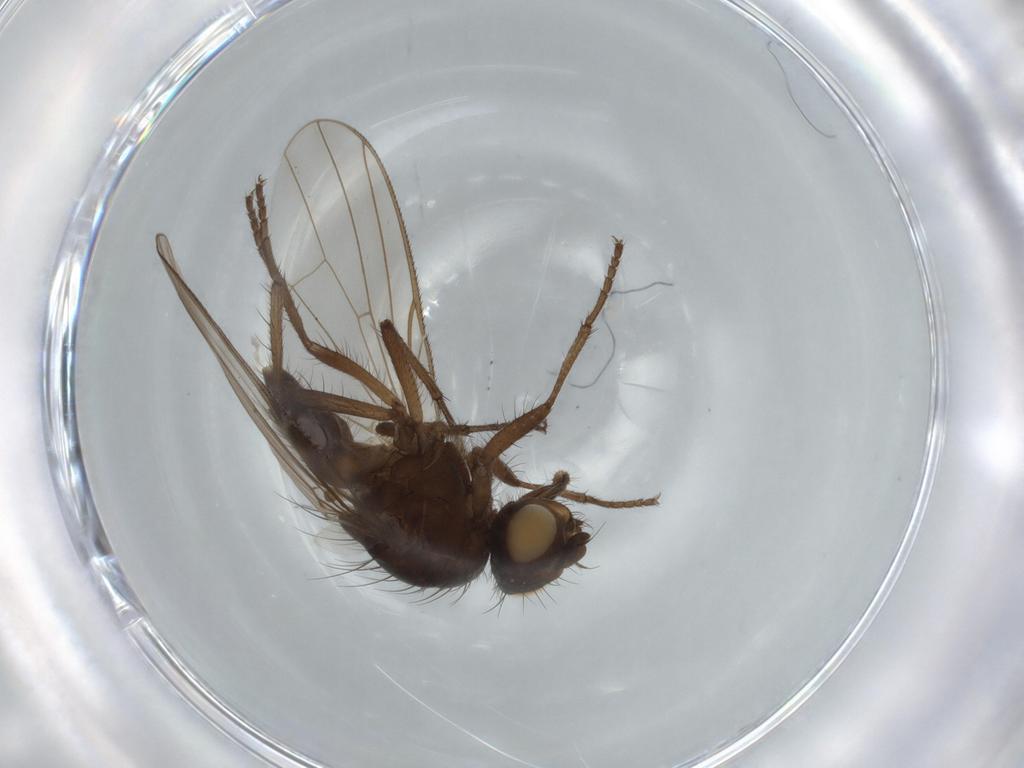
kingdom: Animalia
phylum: Arthropoda
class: Insecta
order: Diptera
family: Anthomyiidae
